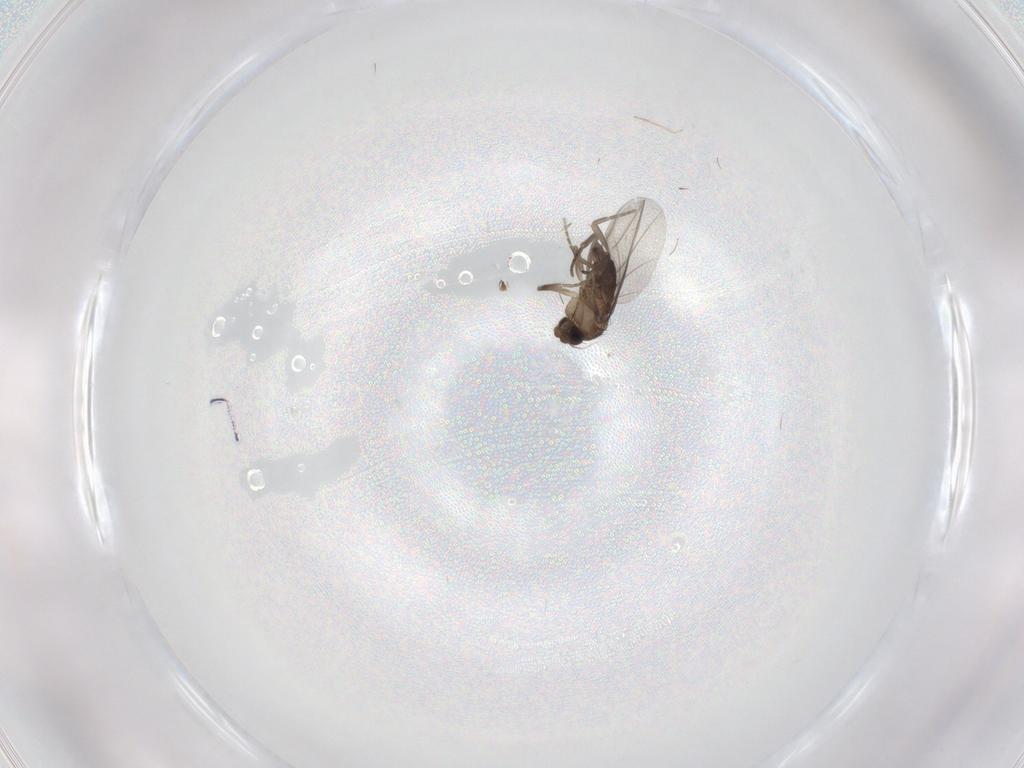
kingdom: Animalia
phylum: Arthropoda
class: Insecta
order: Diptera
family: Phoridae
